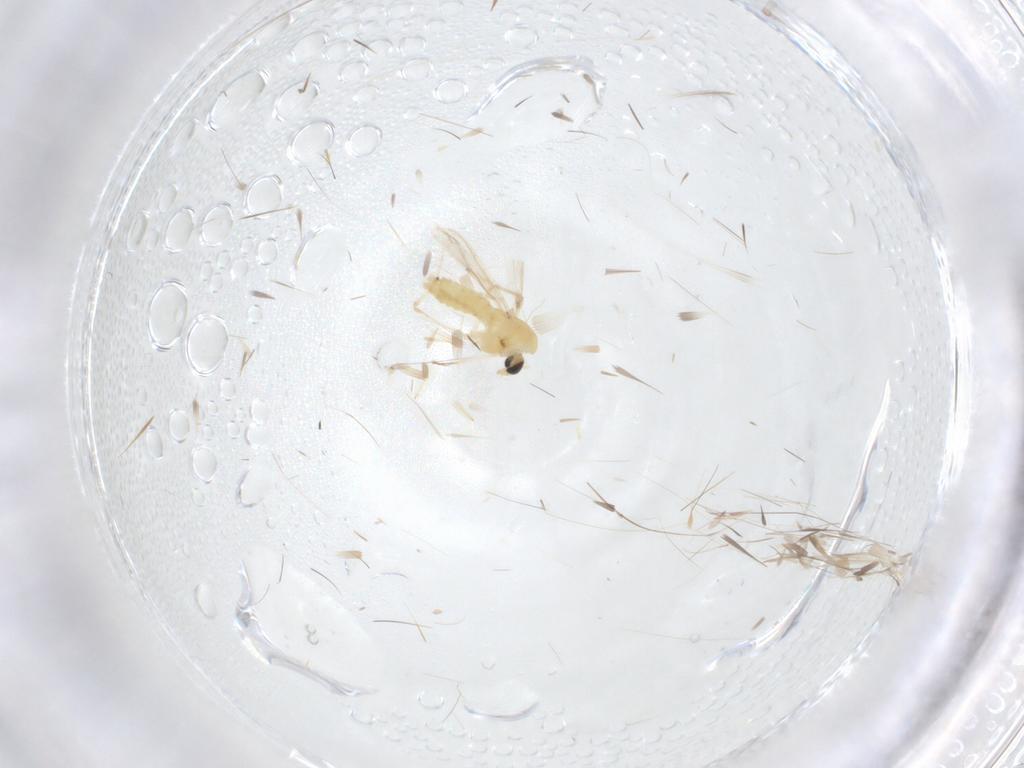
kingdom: Animalia
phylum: Arthropoda
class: Insecta
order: Diptera
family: Cecidomyiidae
